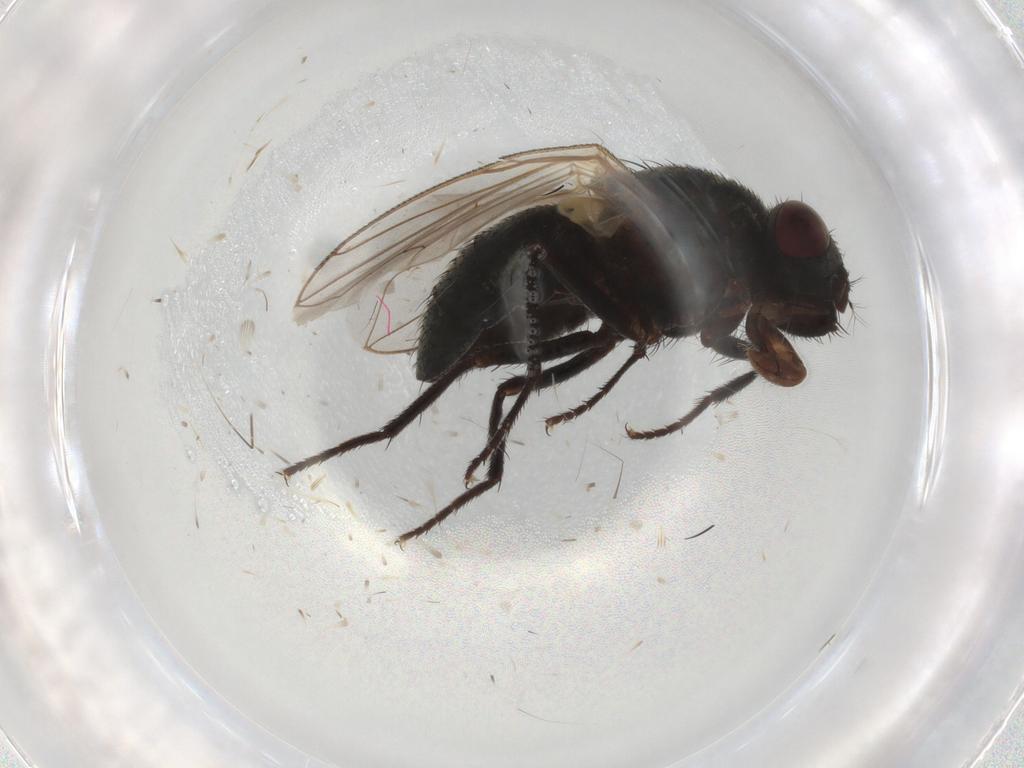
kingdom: Animalia
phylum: Arthropoda
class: Insecta
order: Diptera
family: Muscidae
